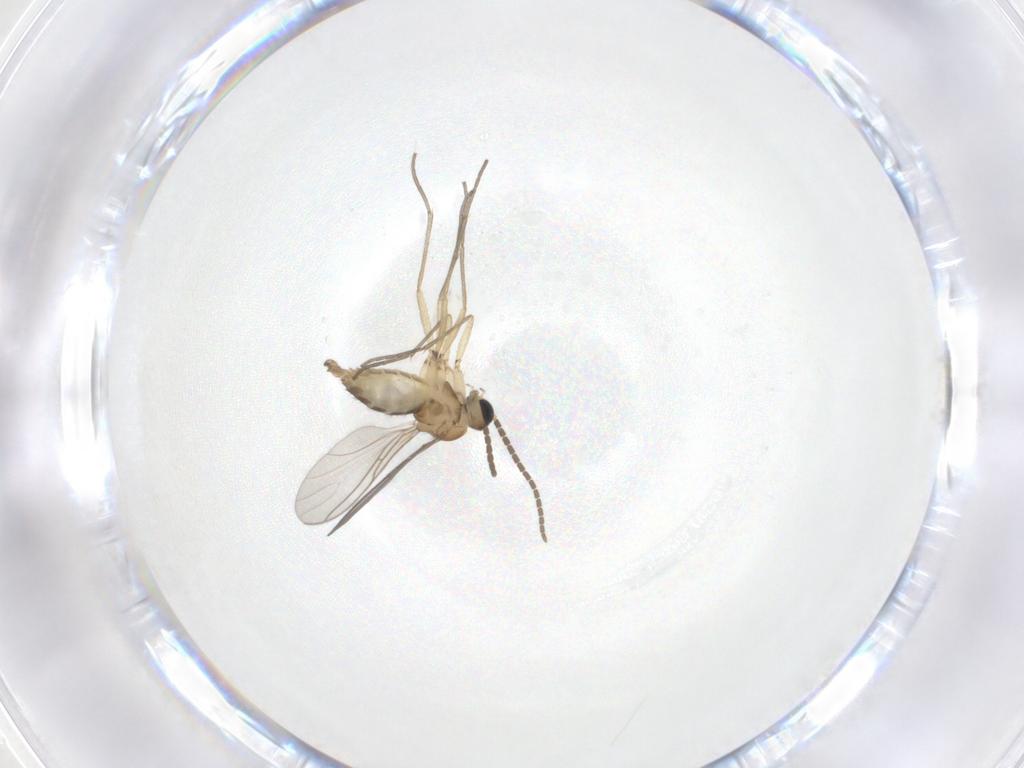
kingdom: Animalia
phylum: Arthropoda
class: Insecta
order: Diptera
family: Sciaridae
